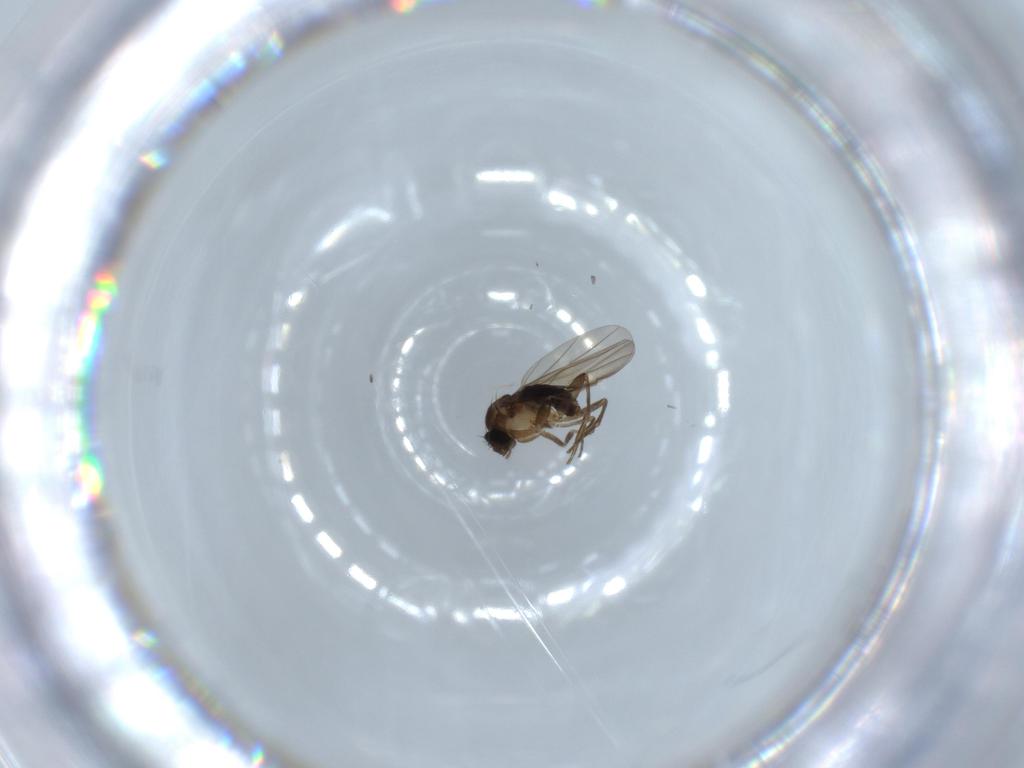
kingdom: Animalia
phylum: Arthropoda
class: Insecta
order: Diptera
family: Phoridae
